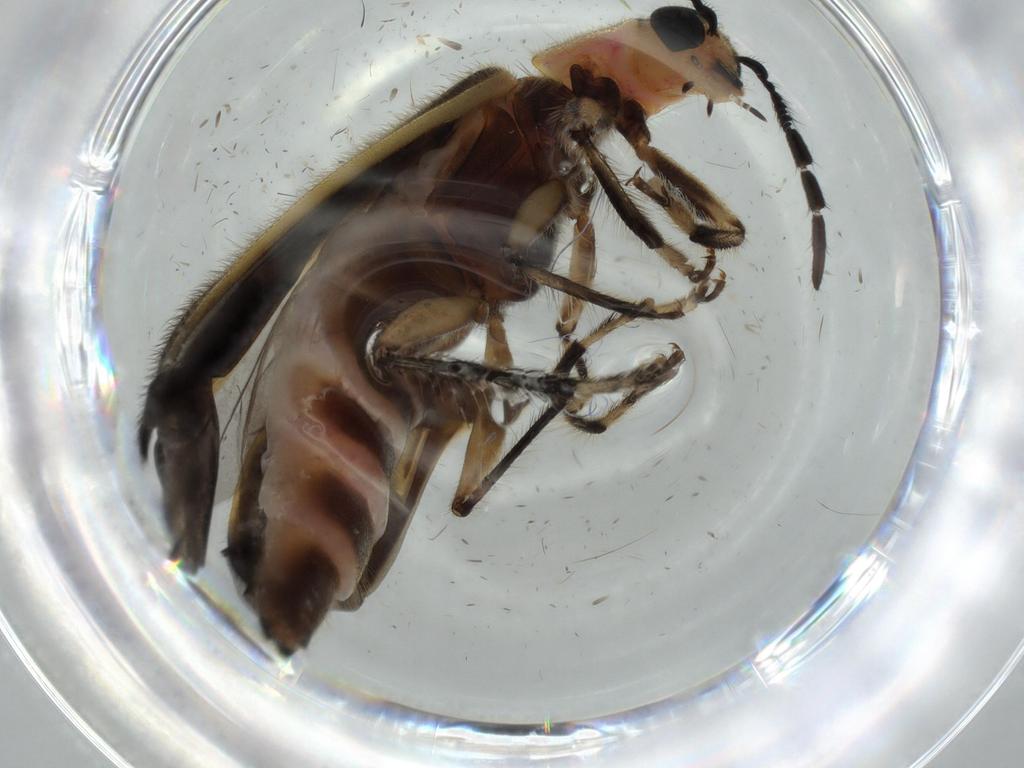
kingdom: Animalia
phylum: Arthropoda
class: Insecta
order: Coleoptera
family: Cleridae
